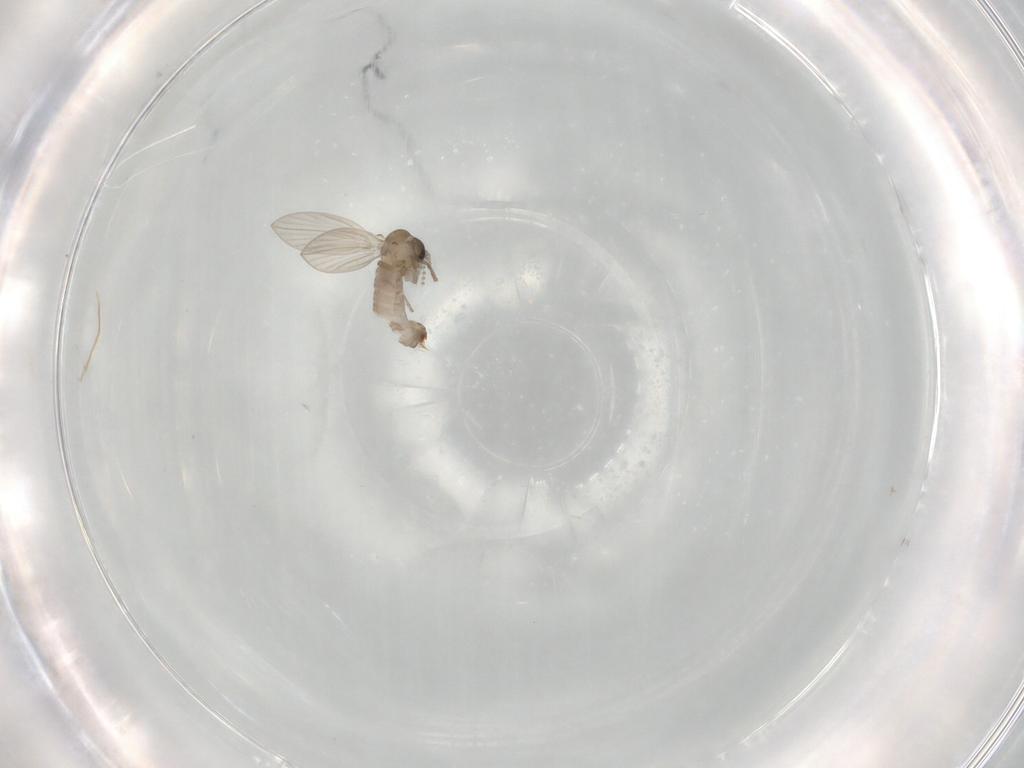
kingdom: Animalia
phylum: Arthropoda
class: Insecta
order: Diptera
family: Psychodidae
